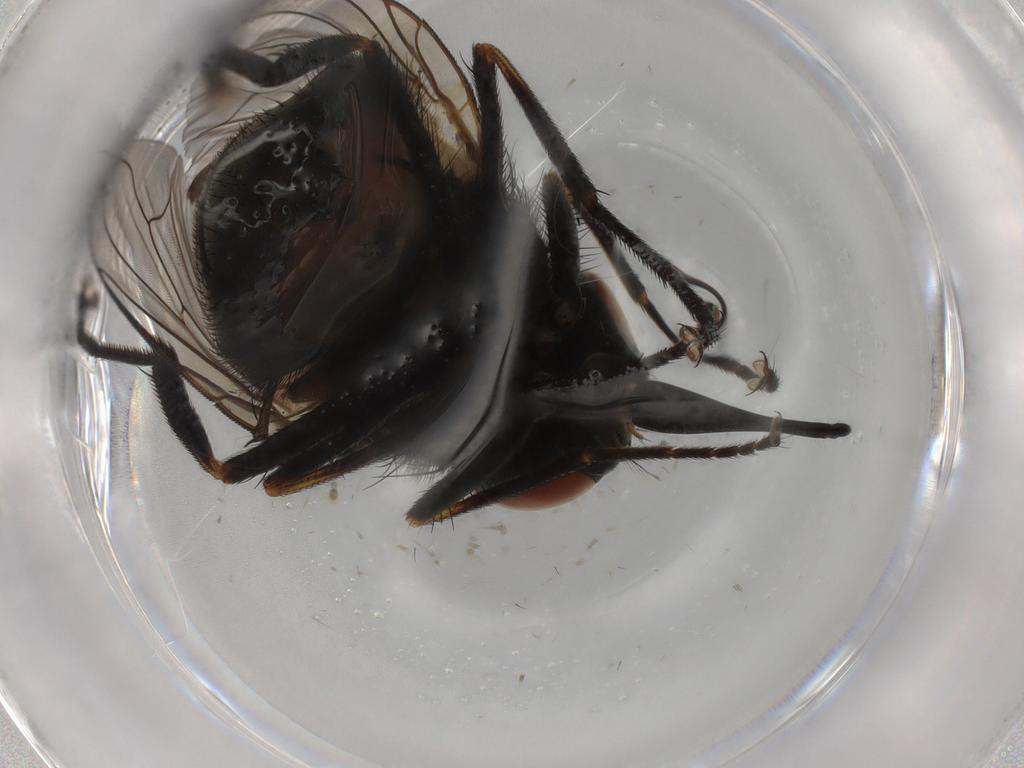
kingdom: Animalia
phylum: Arthropoda
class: Insecta
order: Diptera
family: Muscidae
